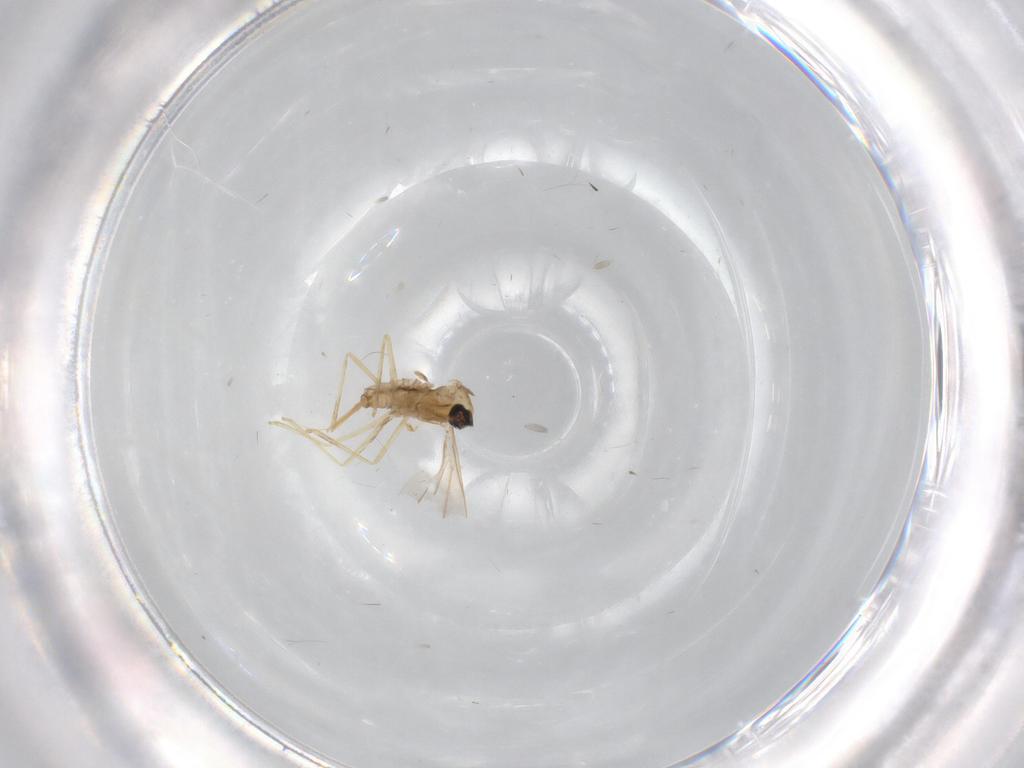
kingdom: Animalia
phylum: Arthropoda
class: Insecta
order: Diptera
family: Cecidomyiidae
